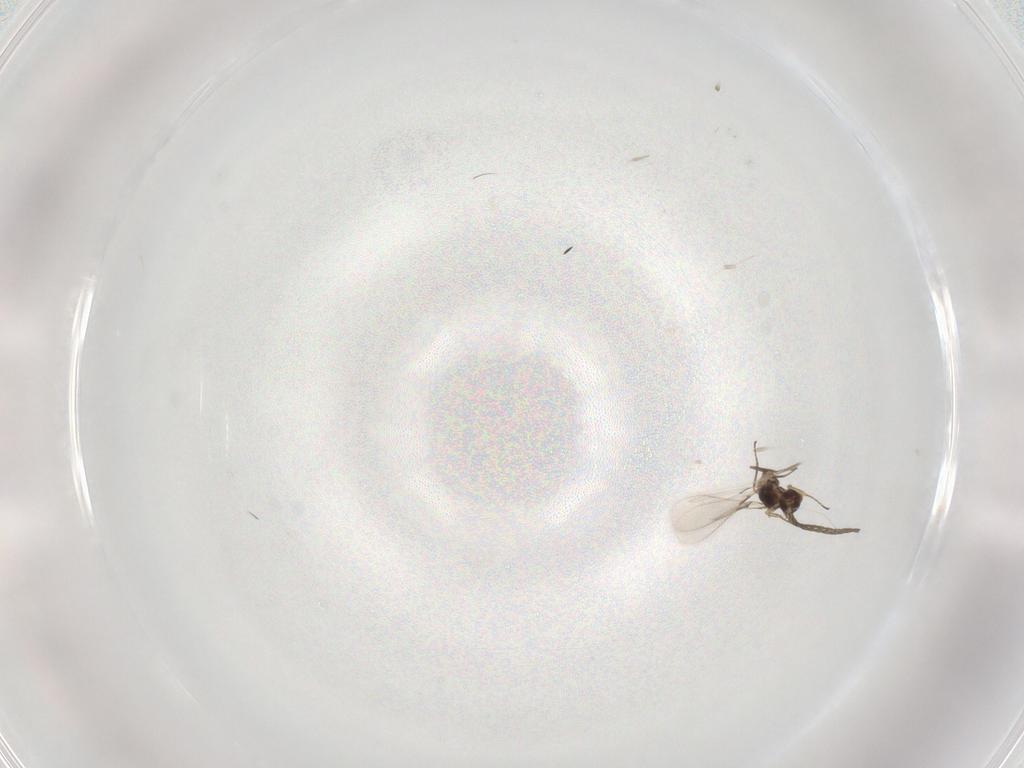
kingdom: Animalia
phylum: Arthropoda
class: Insecta
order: Hymenoptera
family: Mymaridae
